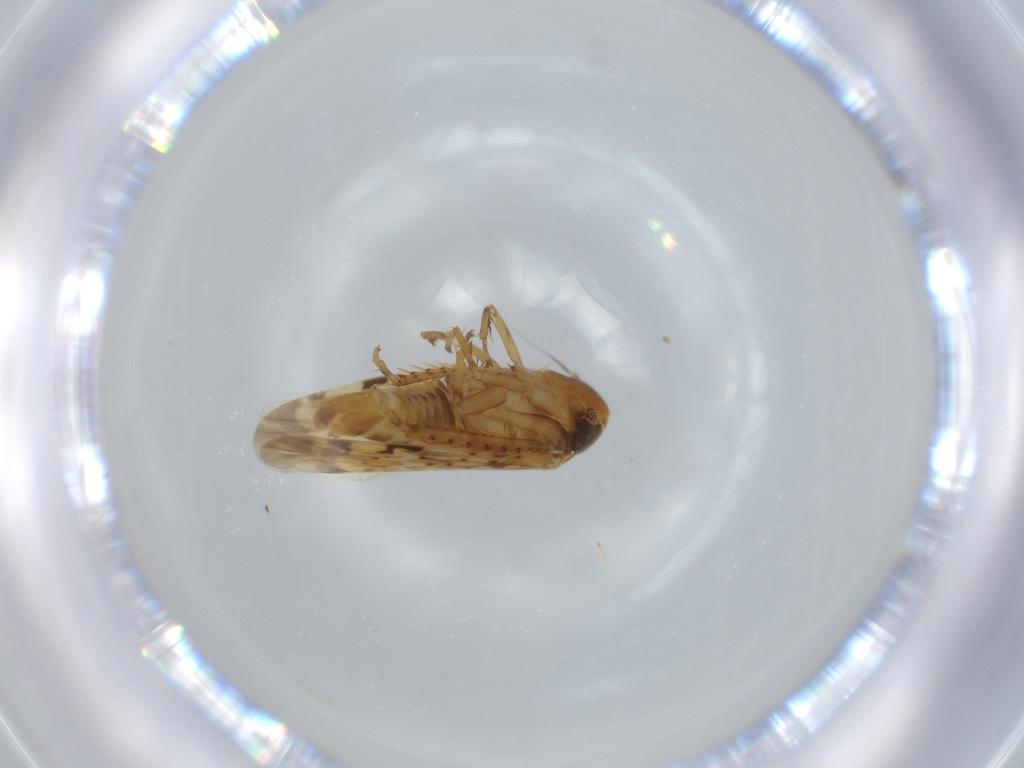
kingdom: Animalia
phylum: Arthropoda
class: Insecta
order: Hemiptera
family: Cicadellidae
